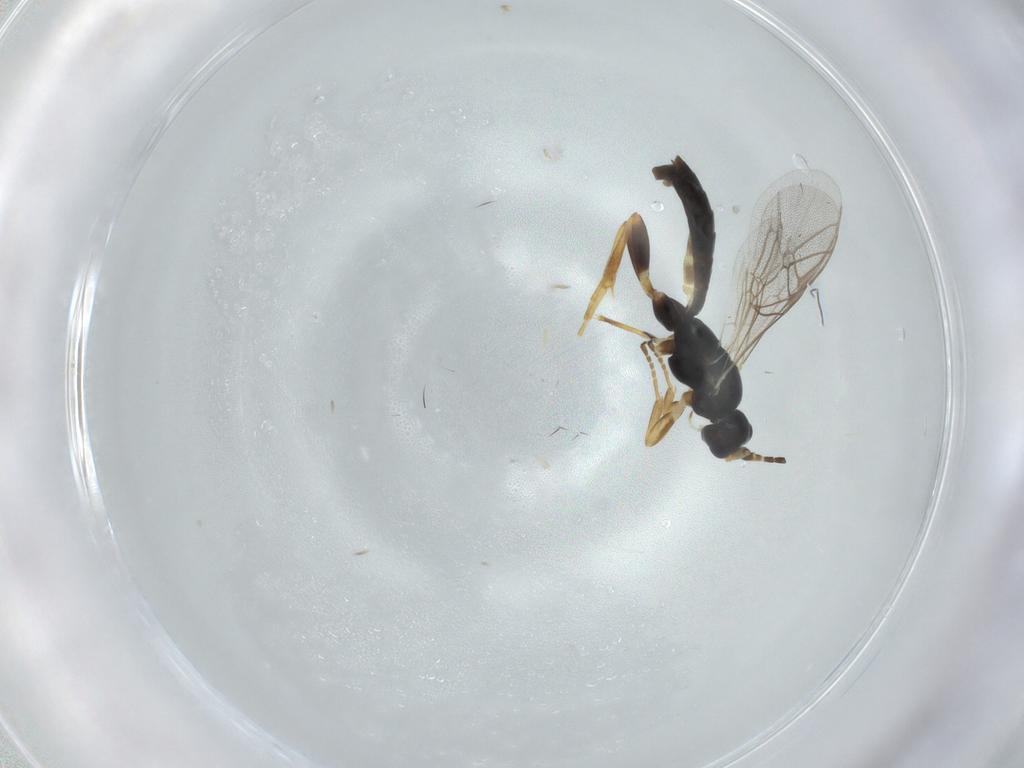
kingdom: Animalia
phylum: Arthropoda
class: Insecta
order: Hymenoptera
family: Ichneumonidae
